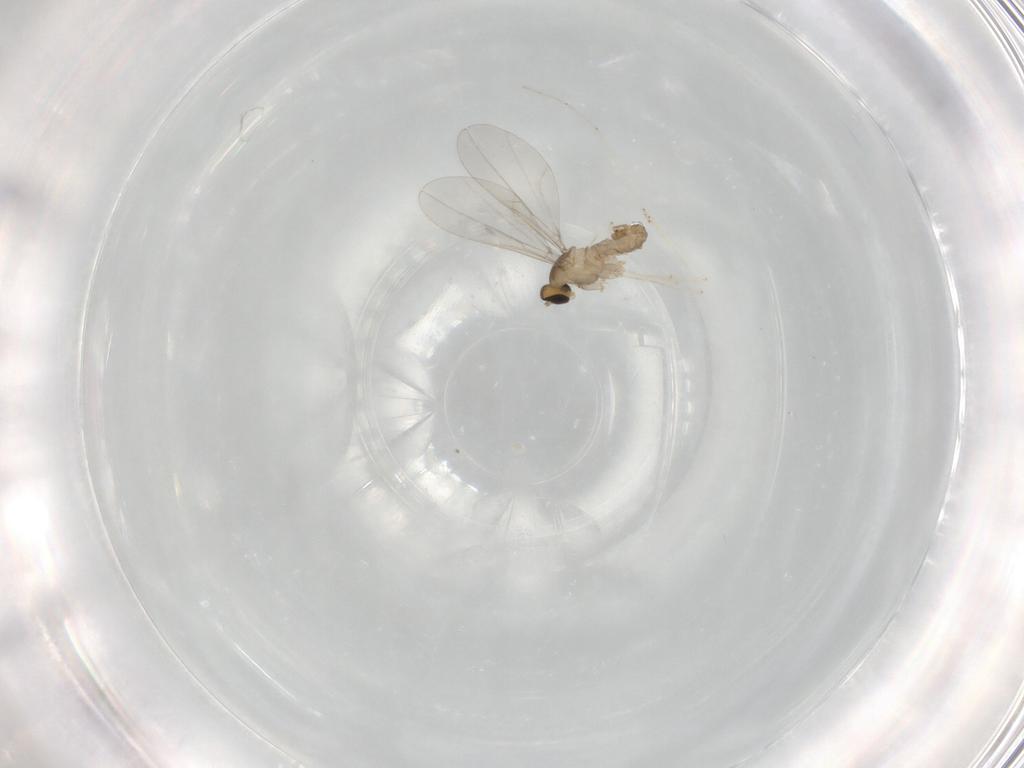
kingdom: Animalia
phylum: Arthropoda
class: Insecta
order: Diptera
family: Cecidomyiidae
